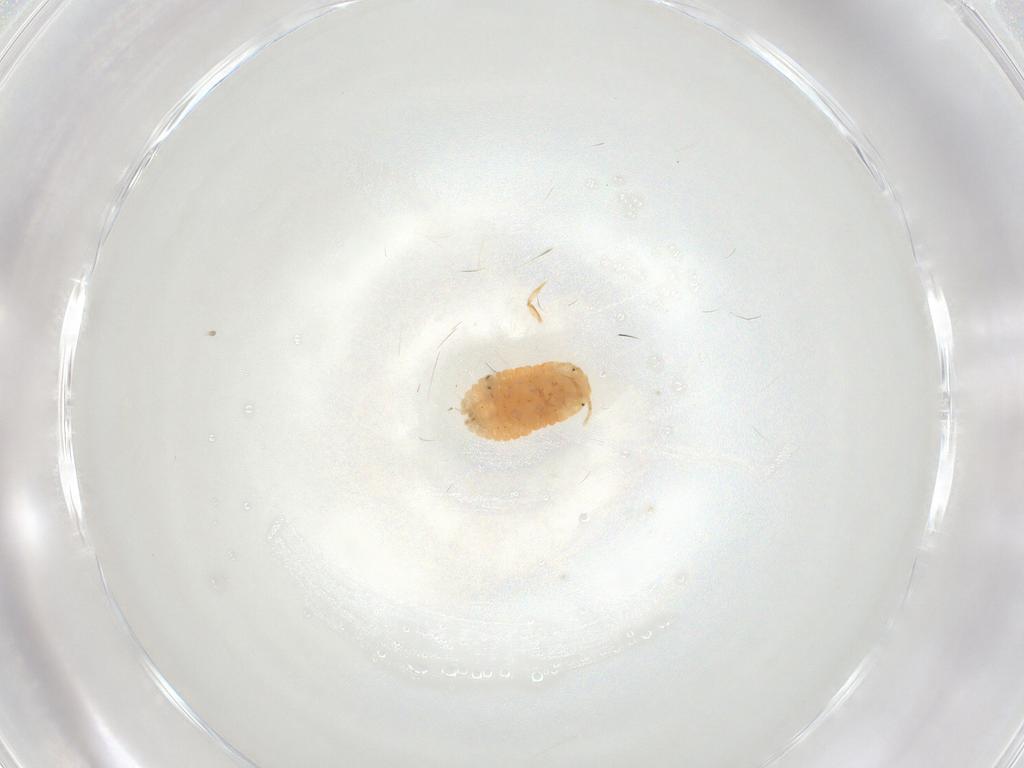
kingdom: Animalia
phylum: Arthropoda
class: Insecta
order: Hemiptera
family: Pseudococcidae
